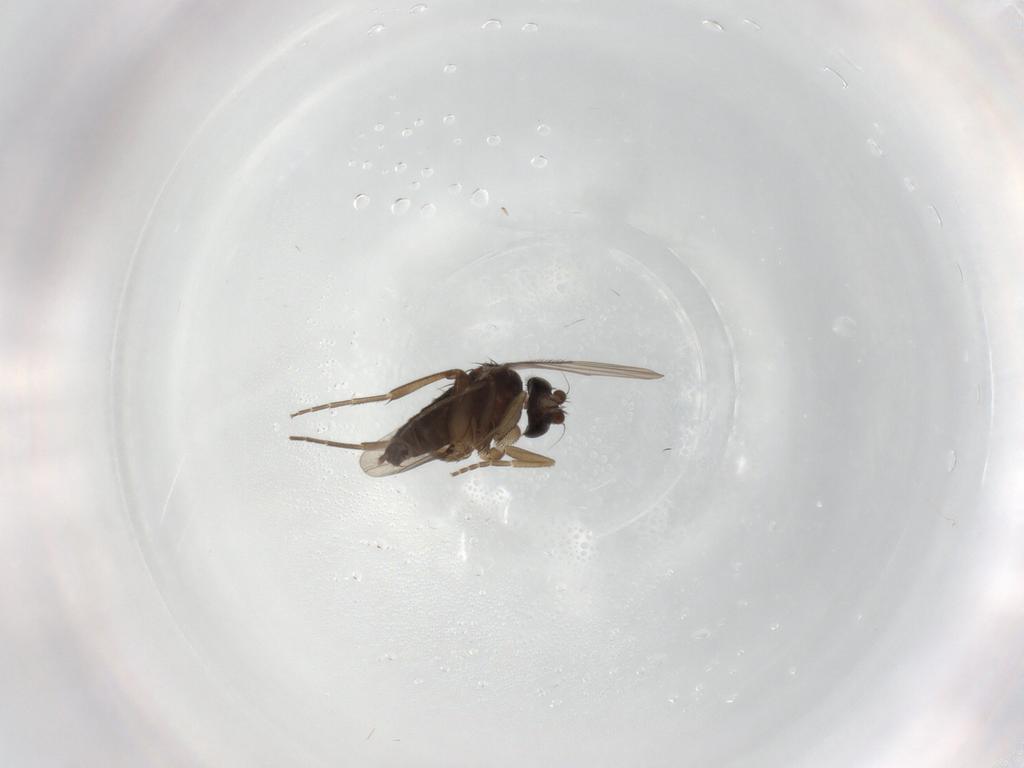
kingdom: Animalia
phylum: Arthropoda
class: Insecta
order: Diptera
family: Phoridae
